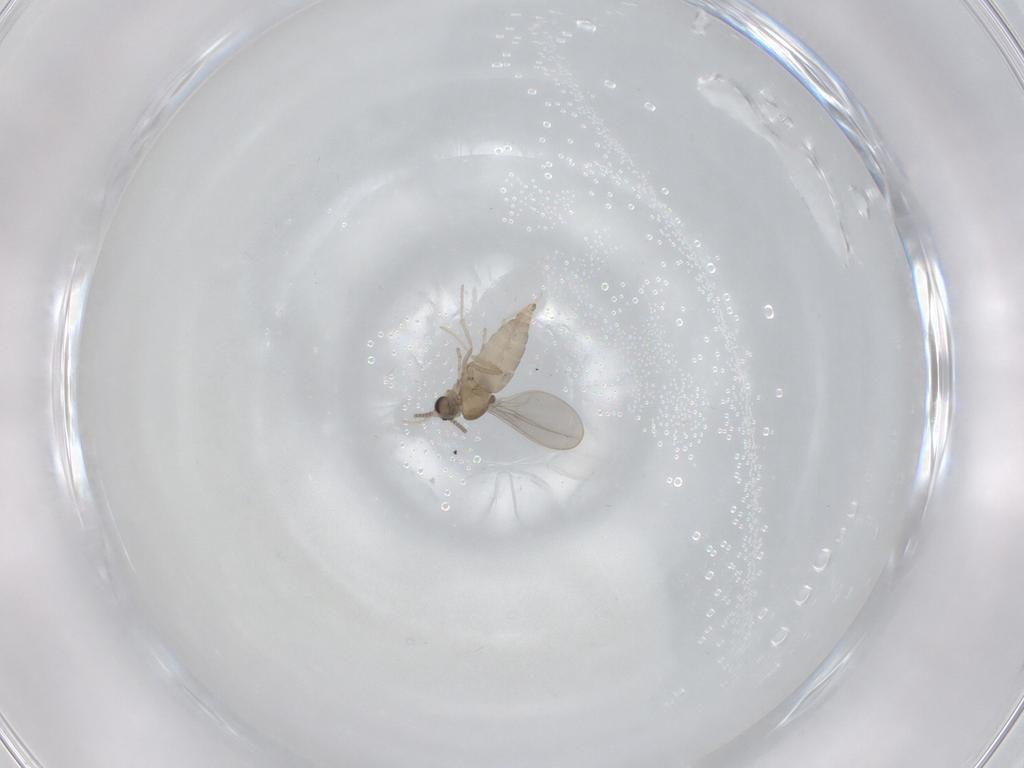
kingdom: Animalia
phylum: Arthropoda
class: Insecta
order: Diptera
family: Cecidomyiidae
